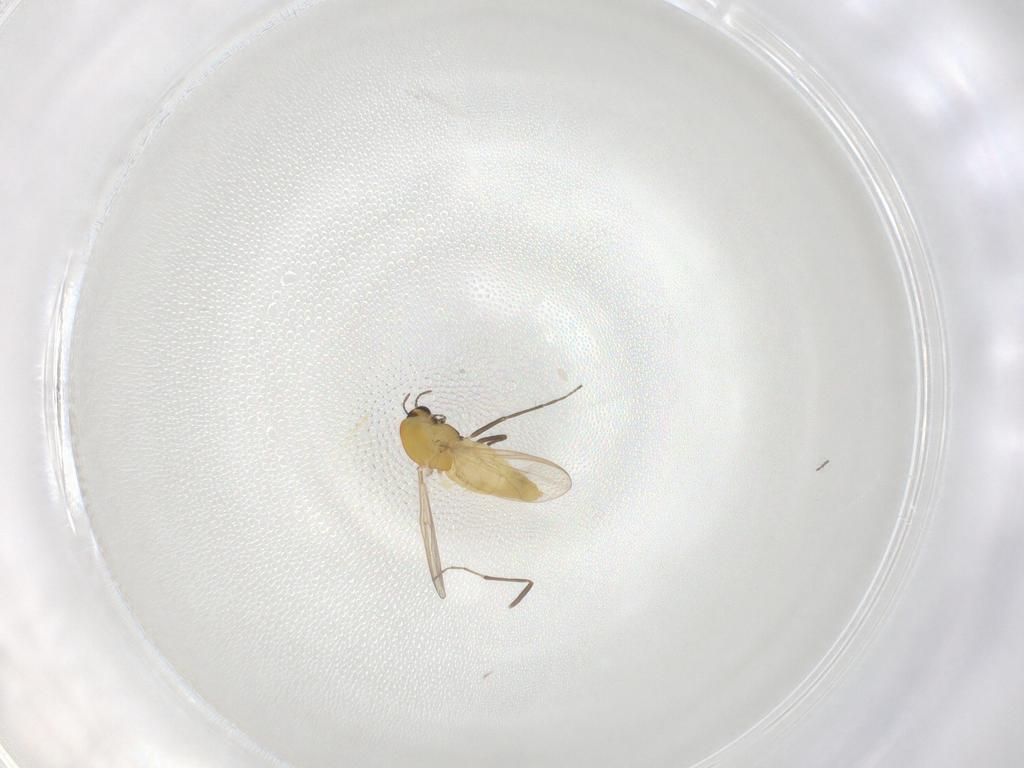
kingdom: Animalia
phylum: Arthropoda
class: Insecta
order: Diptera
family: Chironomidae
